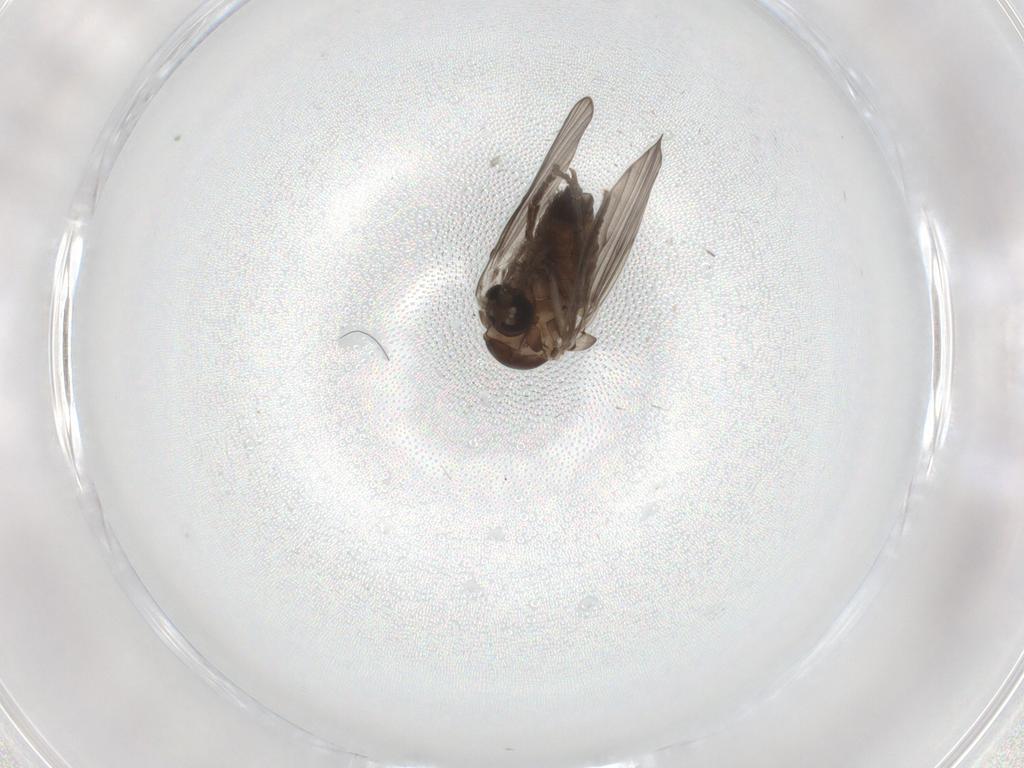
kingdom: Animalia
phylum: Arthropoda
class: Insecta
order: Diptera
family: Psychodidae
